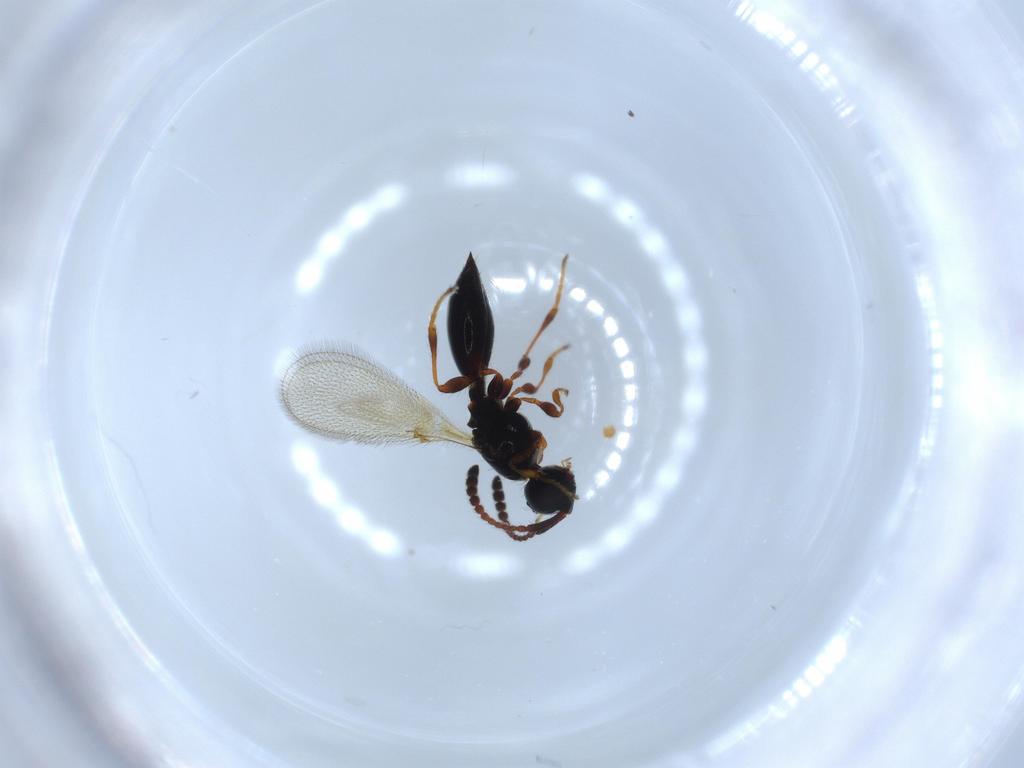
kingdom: Animalia
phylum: Arthropoda
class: Insecta
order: Hymenoptera
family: Diapriidae
